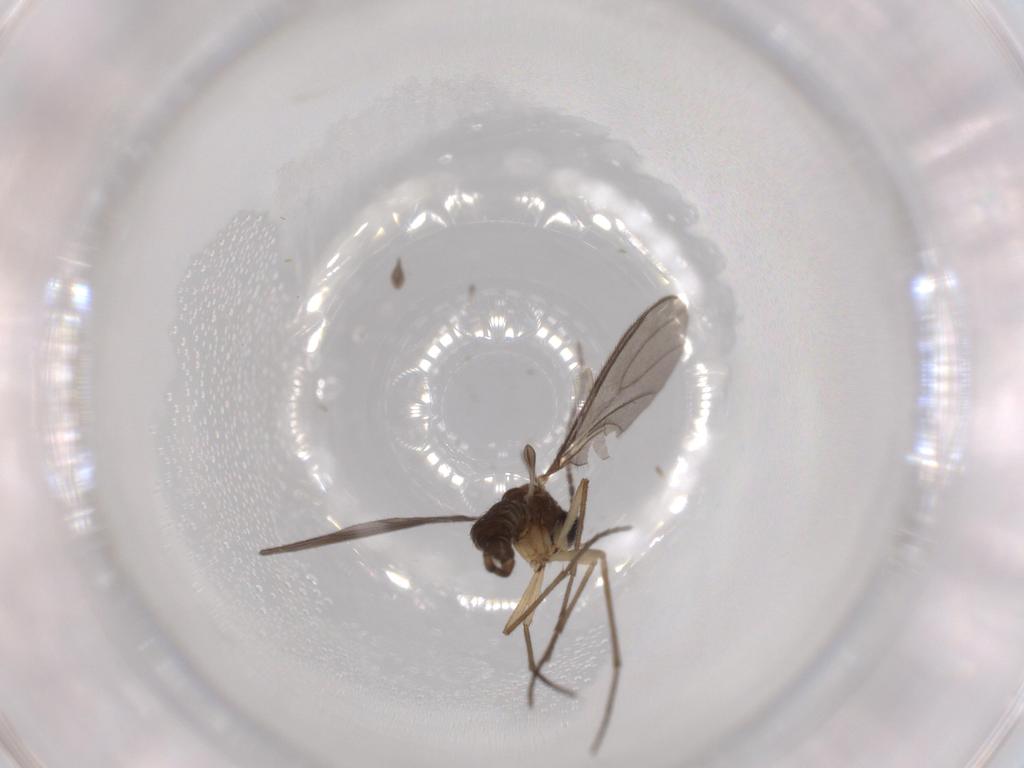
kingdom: Animalia
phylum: Arthropoda
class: Insecta
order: Diptera
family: Sciaridae
